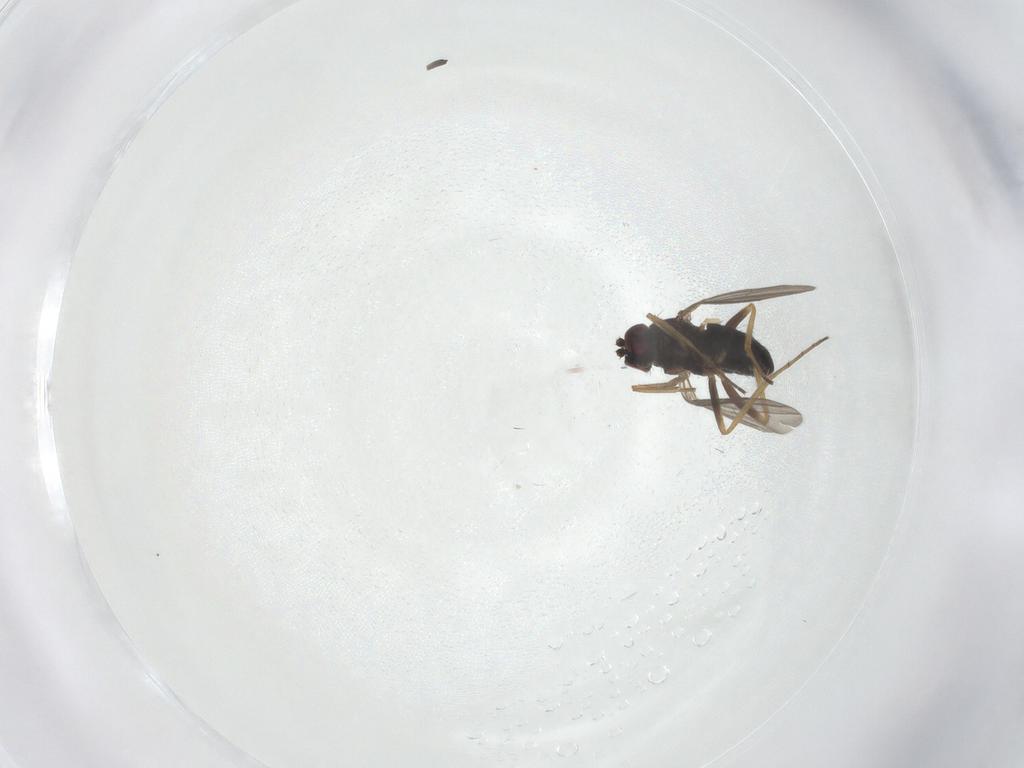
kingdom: Animalia
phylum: Arthropoda
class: Insecta
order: Diptera
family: Dolichopodidae
